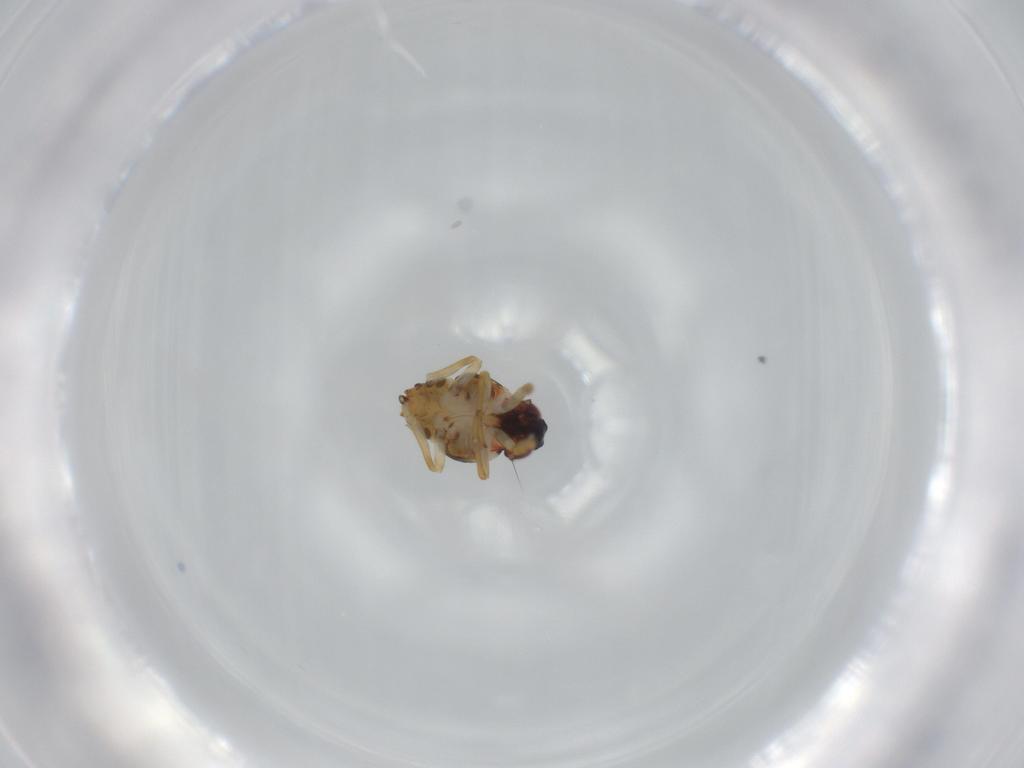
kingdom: Animalia
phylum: Arthropoda
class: Insecta
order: Hemiptera
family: Issidae
